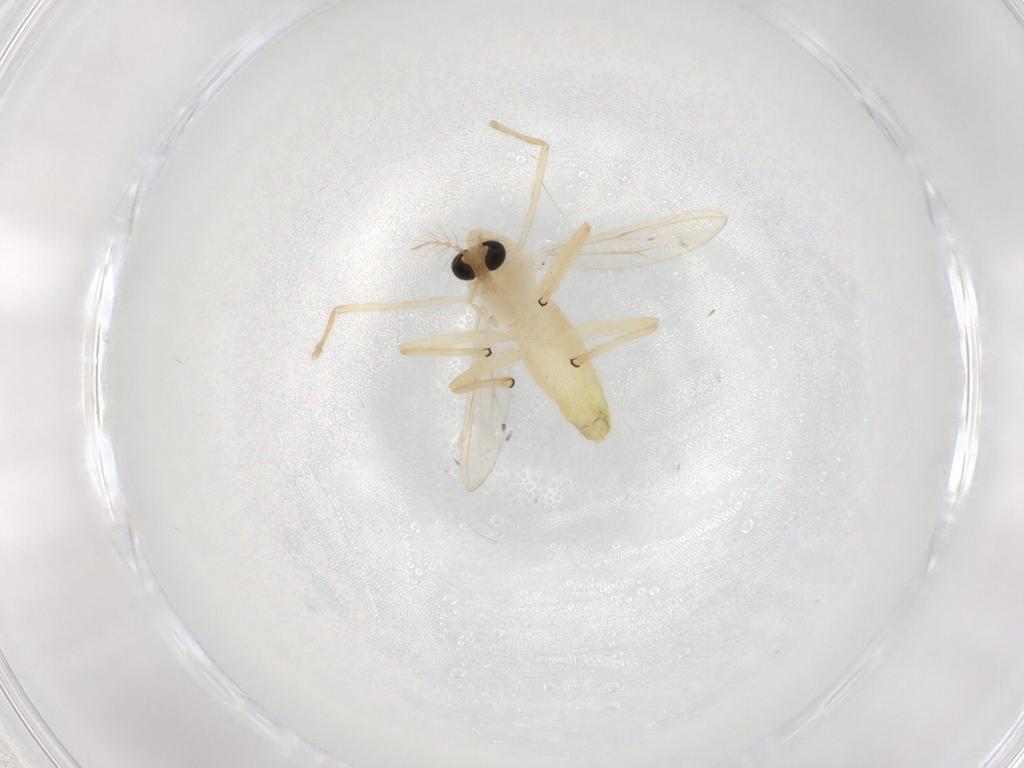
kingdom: Animalia
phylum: Arthropoda
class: Insecta
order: Diptera
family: Chironomidae
